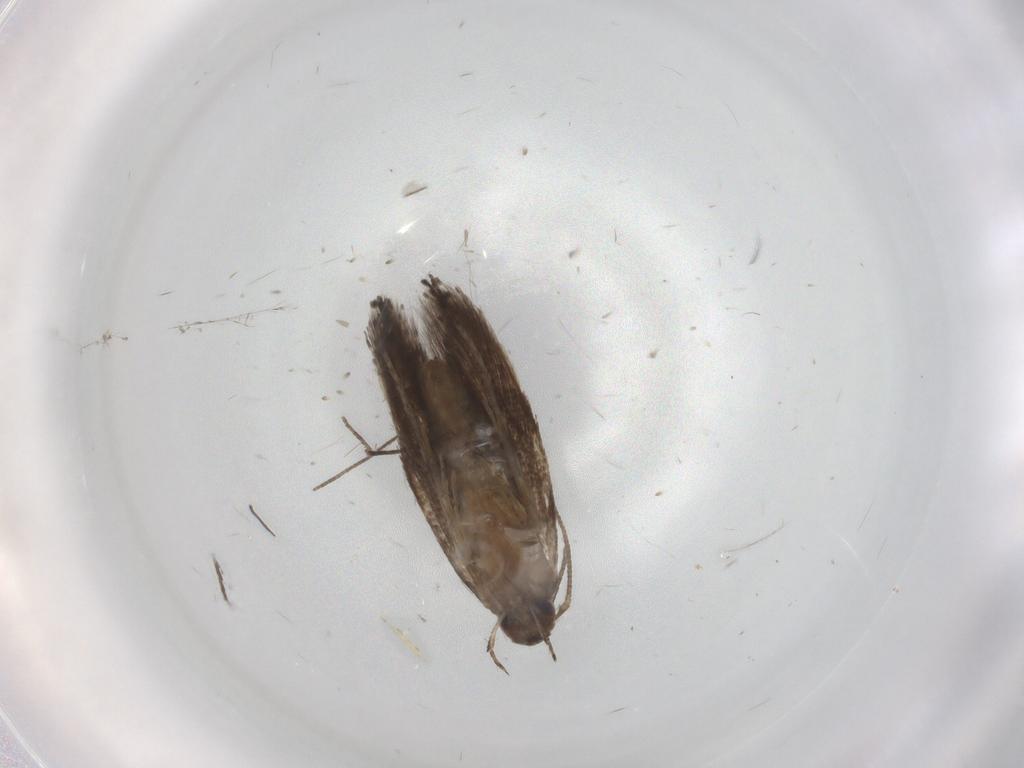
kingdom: Animalia
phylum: Arthropoda
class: Insecta
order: Lepidoptera
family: Gelechiidae
